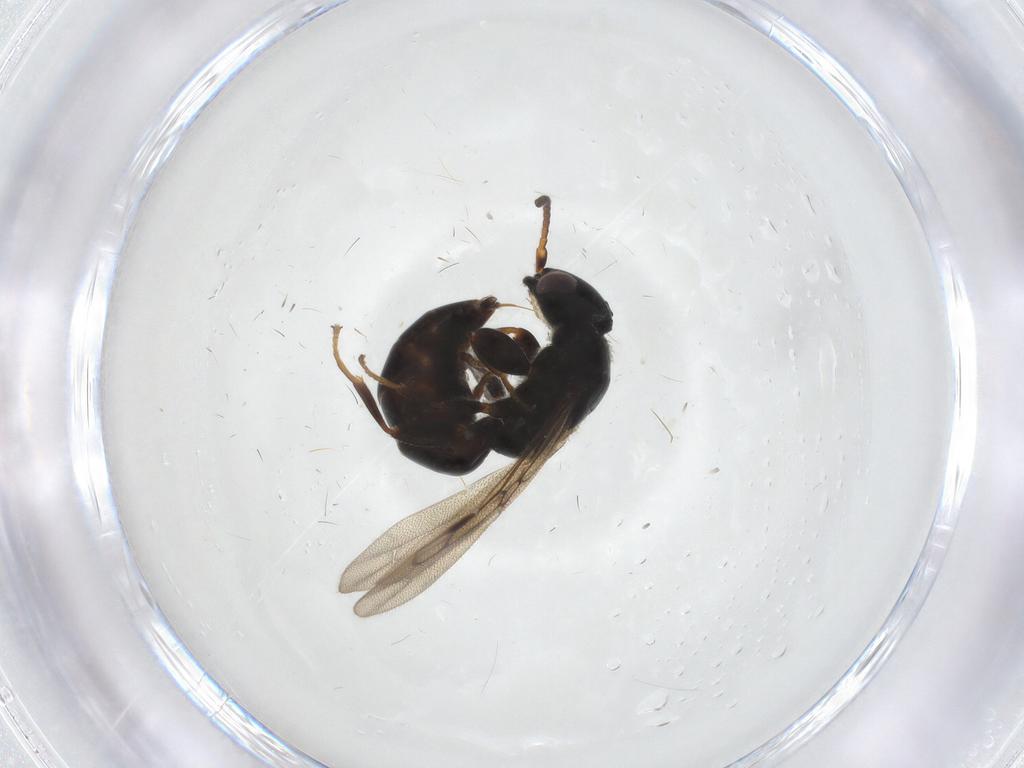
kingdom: Animalia
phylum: Arthropoda
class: Insecta
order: Hymenoptera
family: Bethylidae
